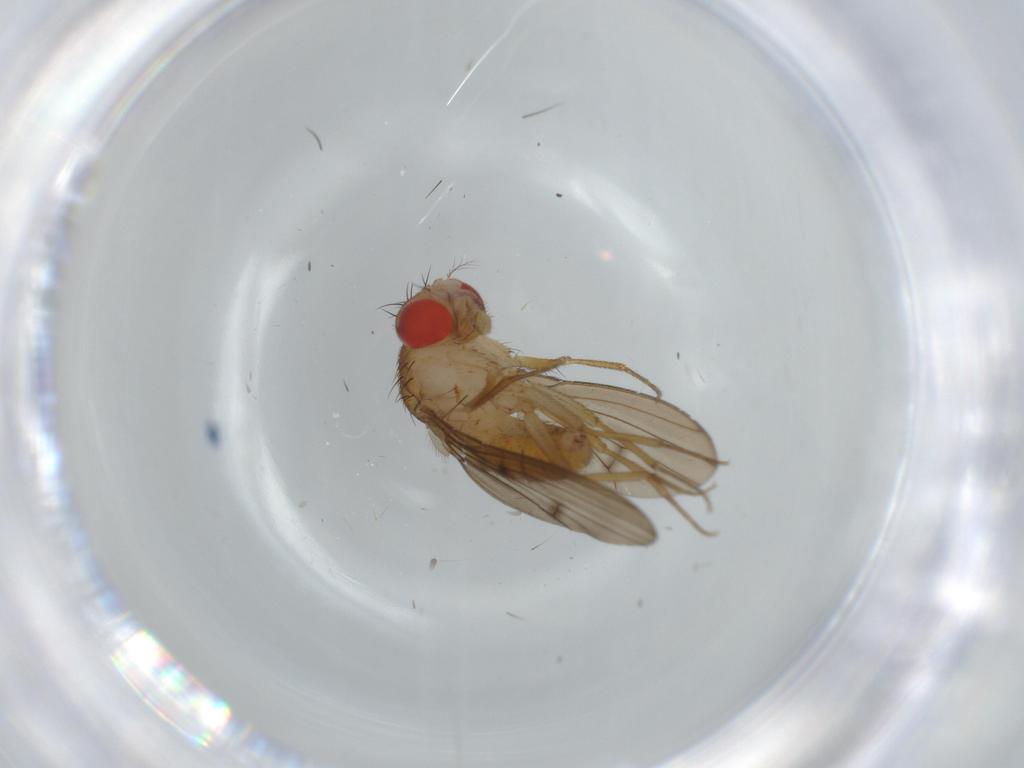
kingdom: Animalia
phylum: Arthropoda
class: Insecta
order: Diptera
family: Drosophilidae
